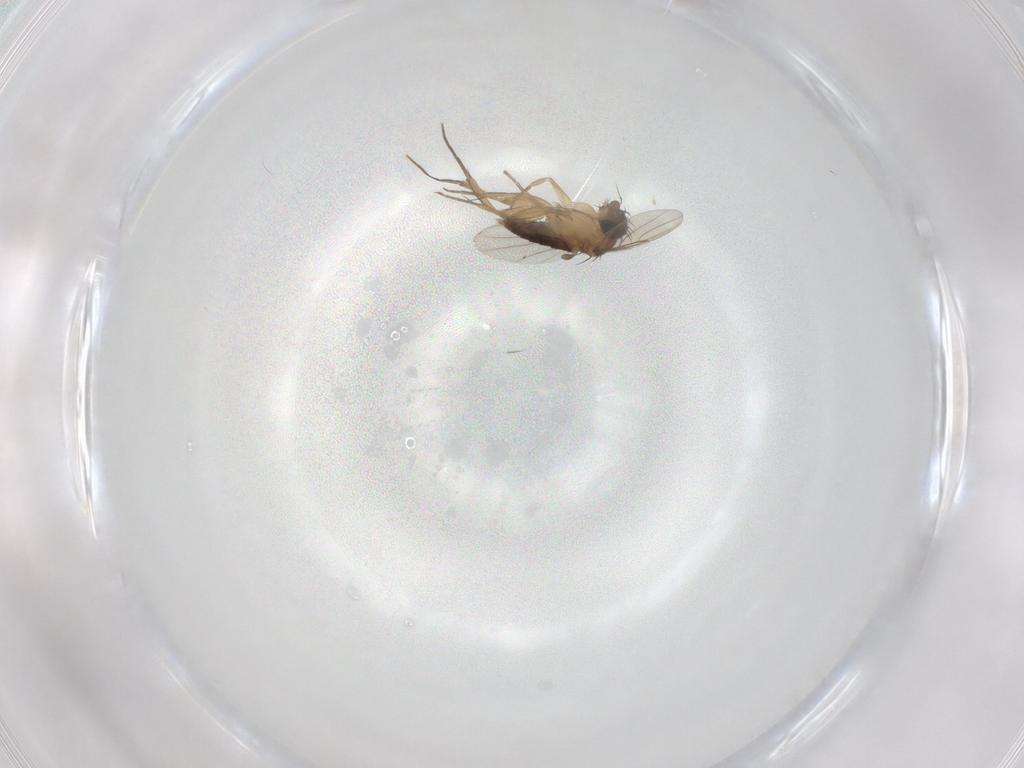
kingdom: Animalia
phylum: Arthropoda
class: Insecta
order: Diptera
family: Phoridae
